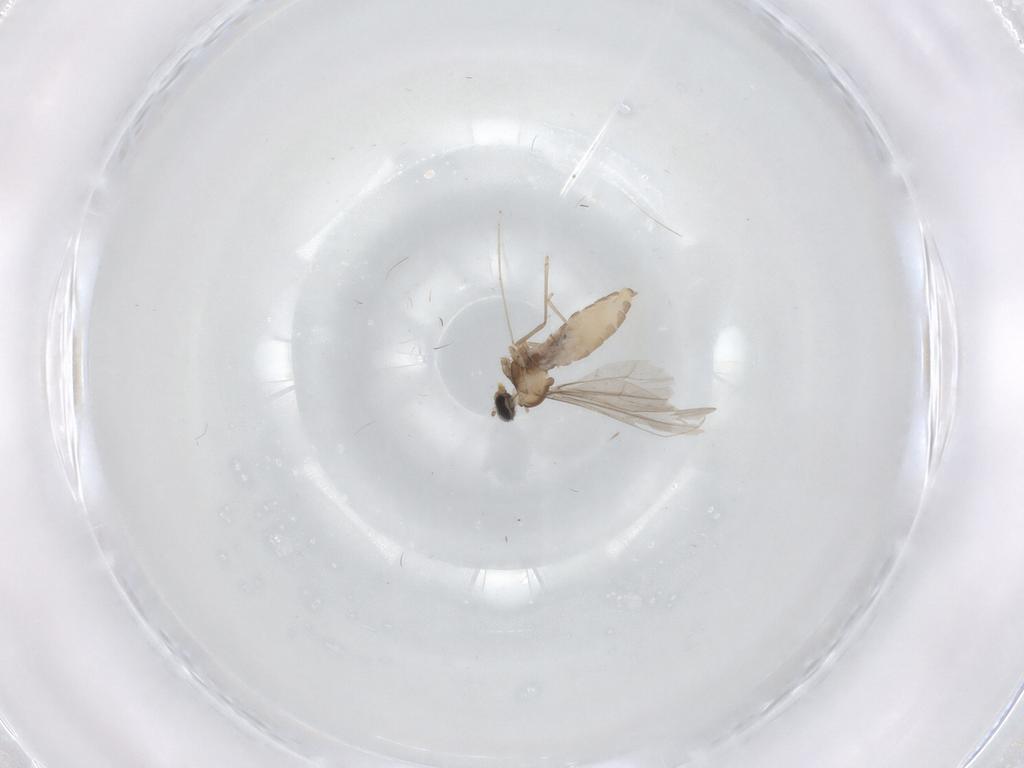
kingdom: Animalia
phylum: Arthropoda
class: Insecta
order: Diptera
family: Cecidomyiidae
